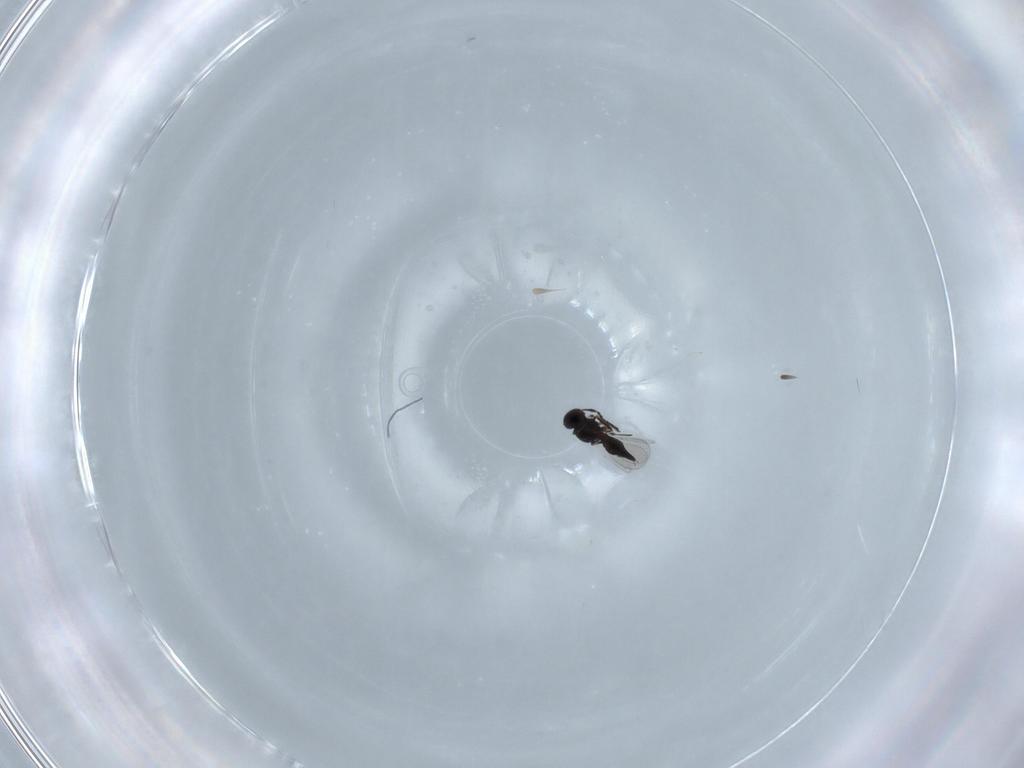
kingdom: Animalia
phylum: Arthropoda
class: Insecta
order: Hymenoptera
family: Platygastridae
